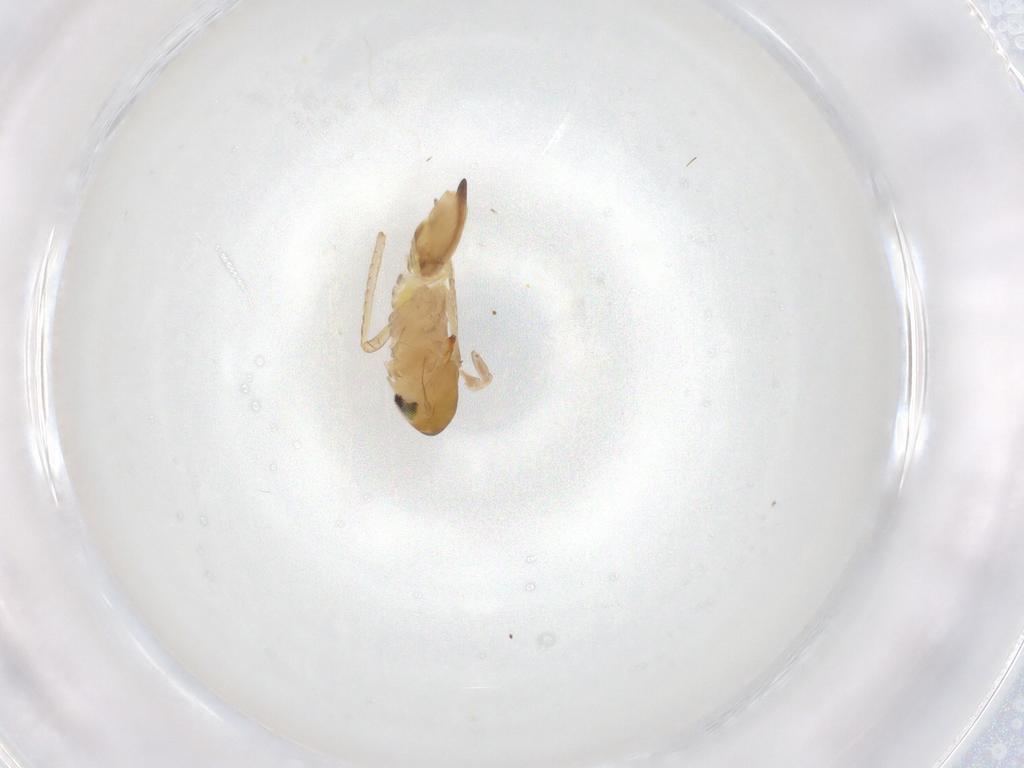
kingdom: Animalia
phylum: Arthropoda
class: Insecta
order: Hemiptera
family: Cicadellidae
